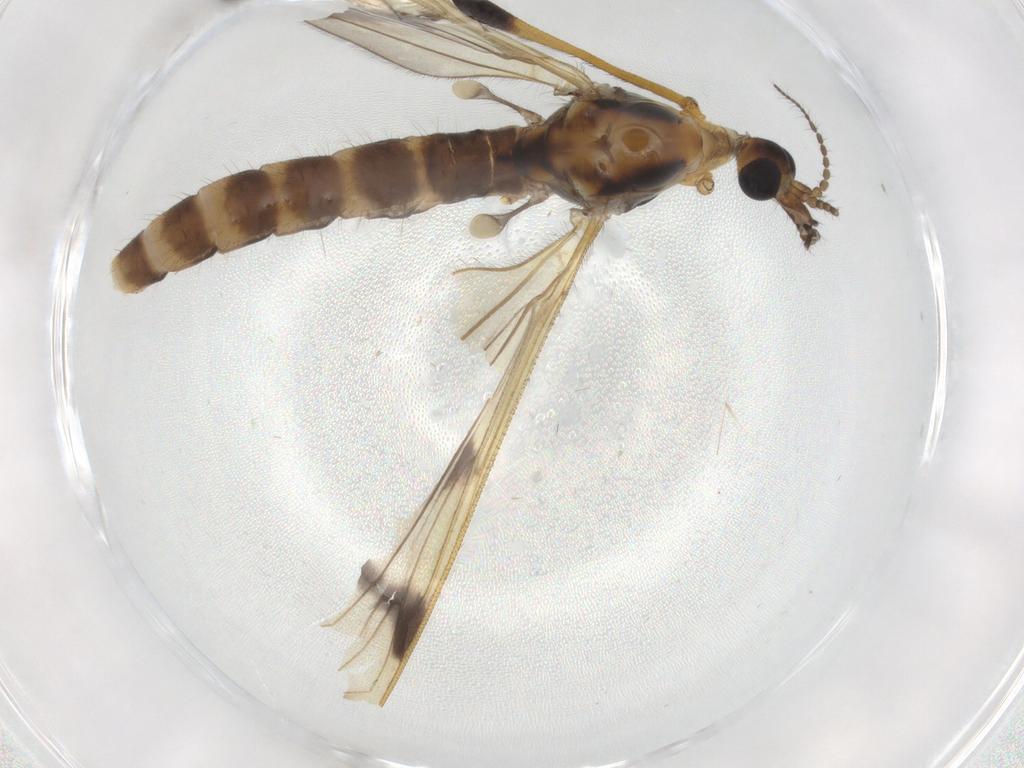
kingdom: Animalia
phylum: Arthropoda
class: Insecta
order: Diptera
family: Limoniidae
